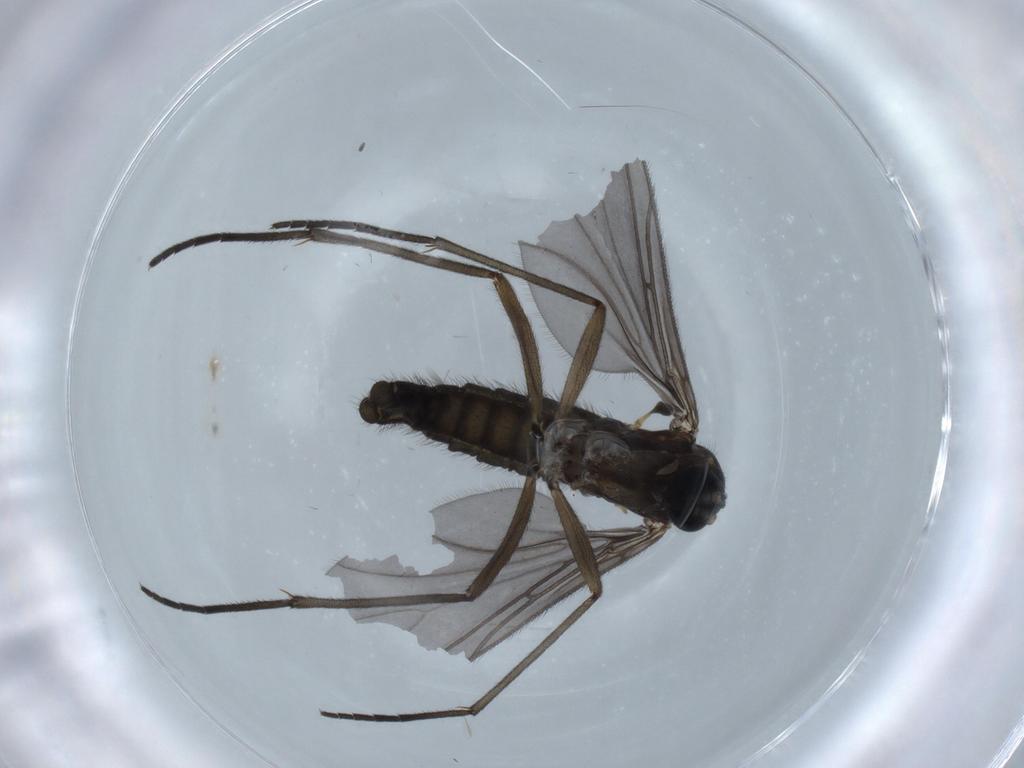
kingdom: Animalia
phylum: Arthropoda
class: Insecta
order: Diptera
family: Sciaridae
